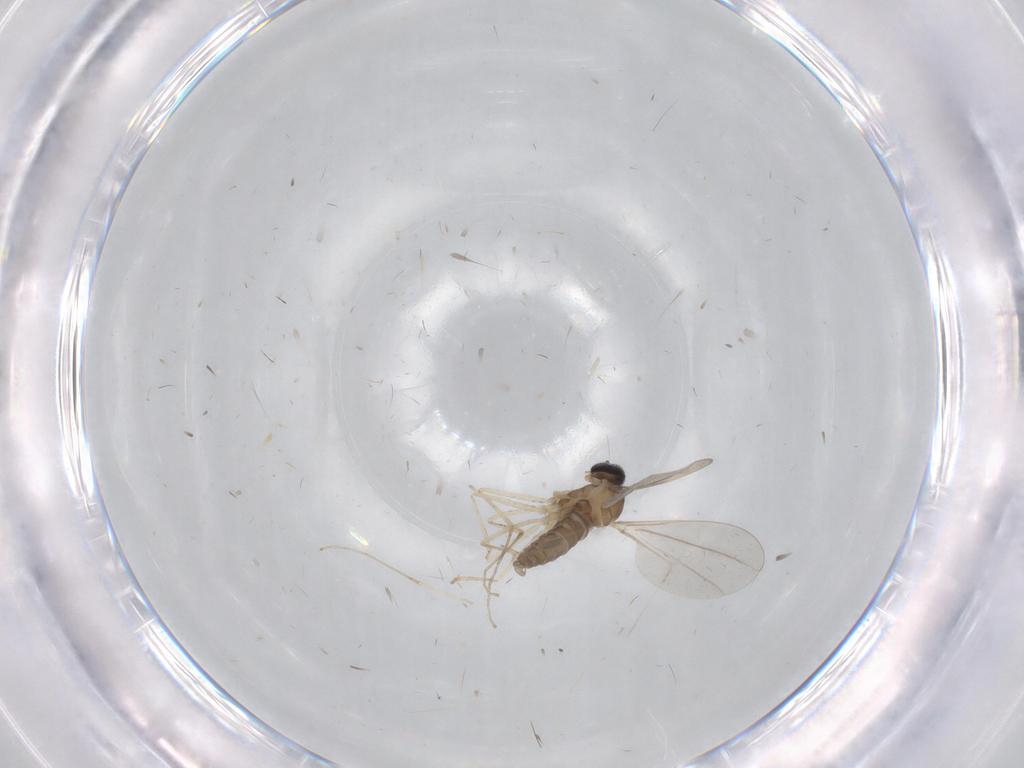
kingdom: Animalia
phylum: Arthropoda
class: Insecta
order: Diptera
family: Cecidomyiidae
